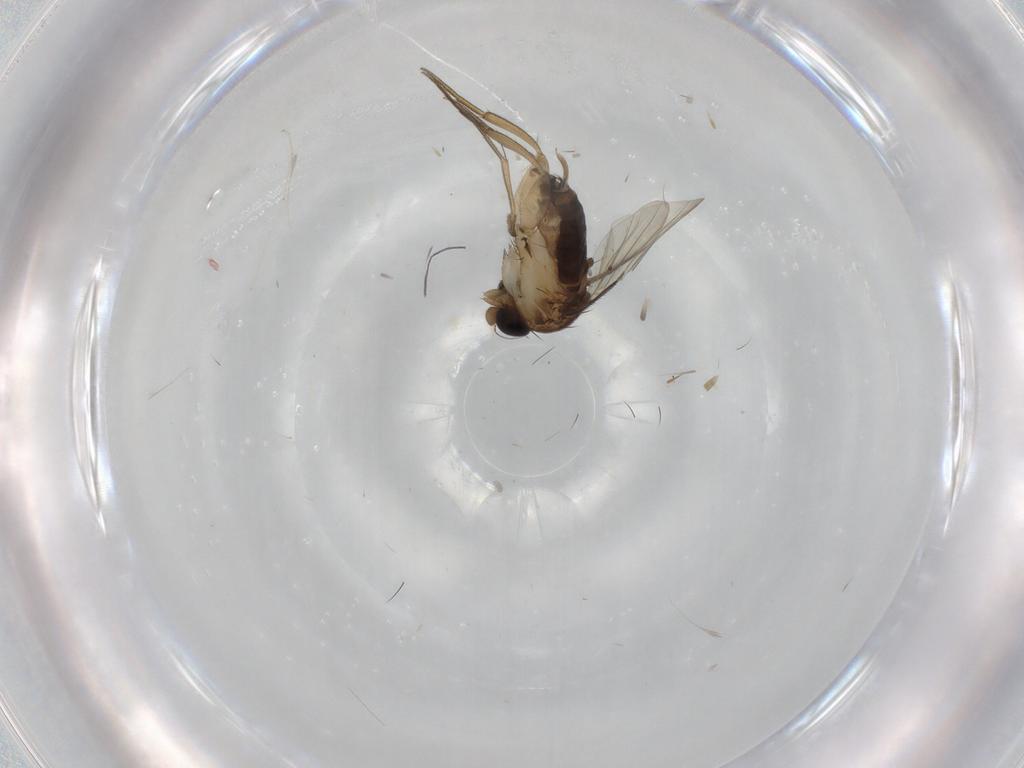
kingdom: Animalia
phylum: Arthropoda
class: Insecta
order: Diptera
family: Phoridae
